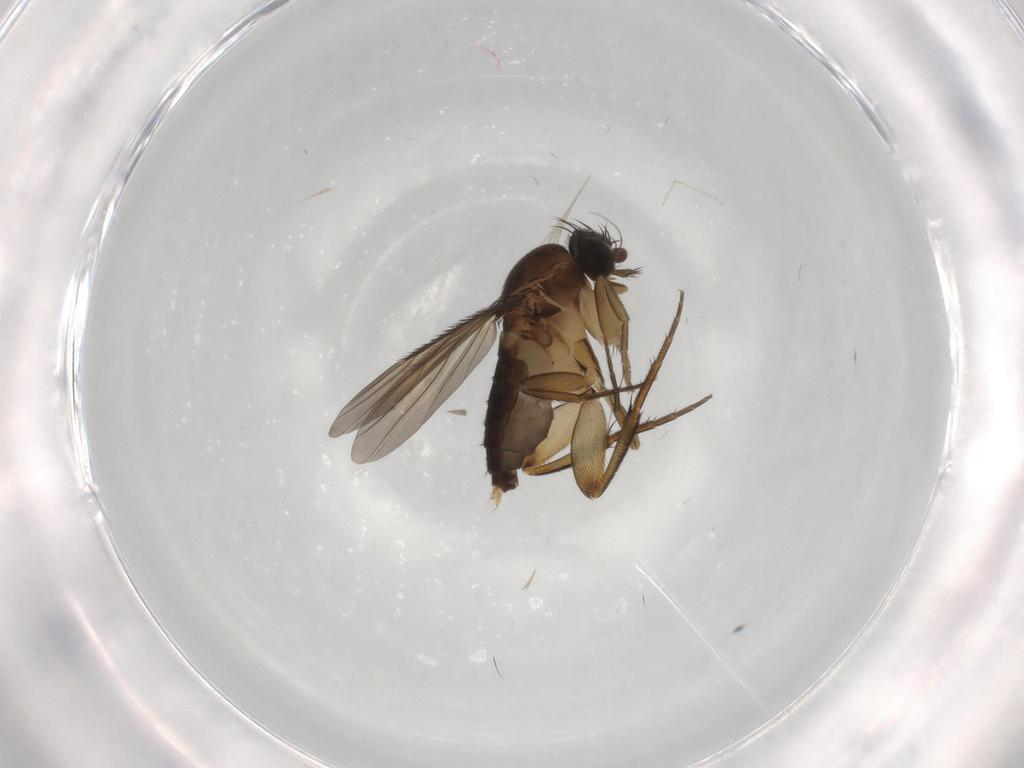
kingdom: Animalia
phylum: Arthropoda
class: Insecta
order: Diptera
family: Phoridae
